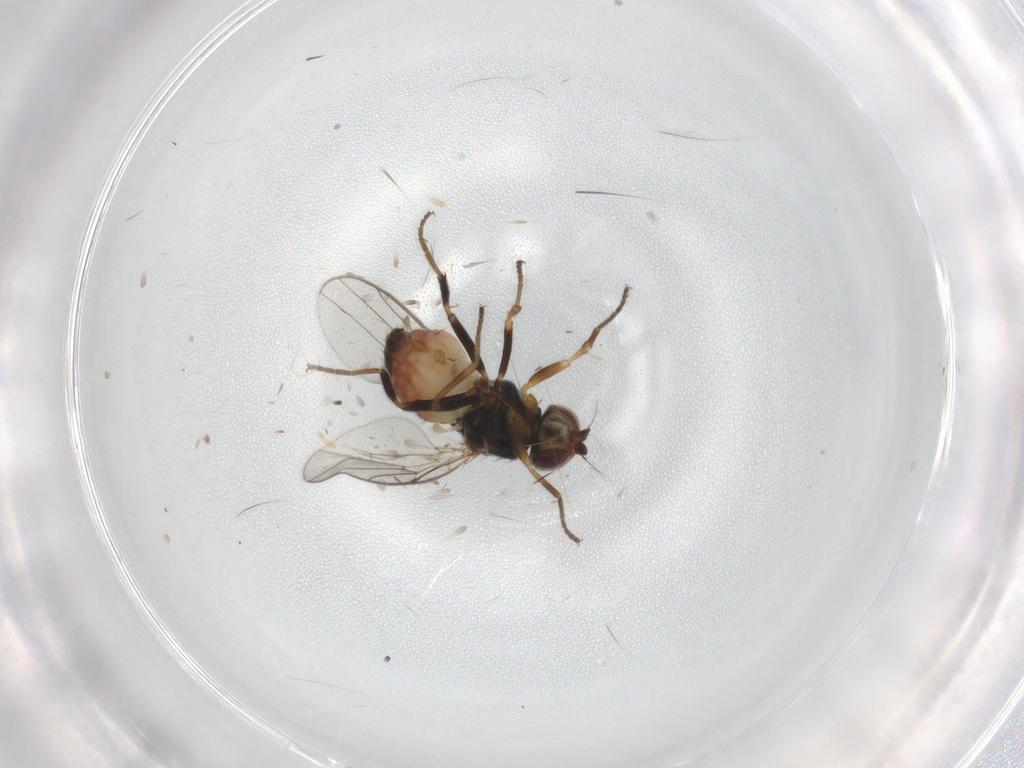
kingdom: Animalia
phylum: Arthropoda
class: Insecta
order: Diptera
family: Chloropidae
